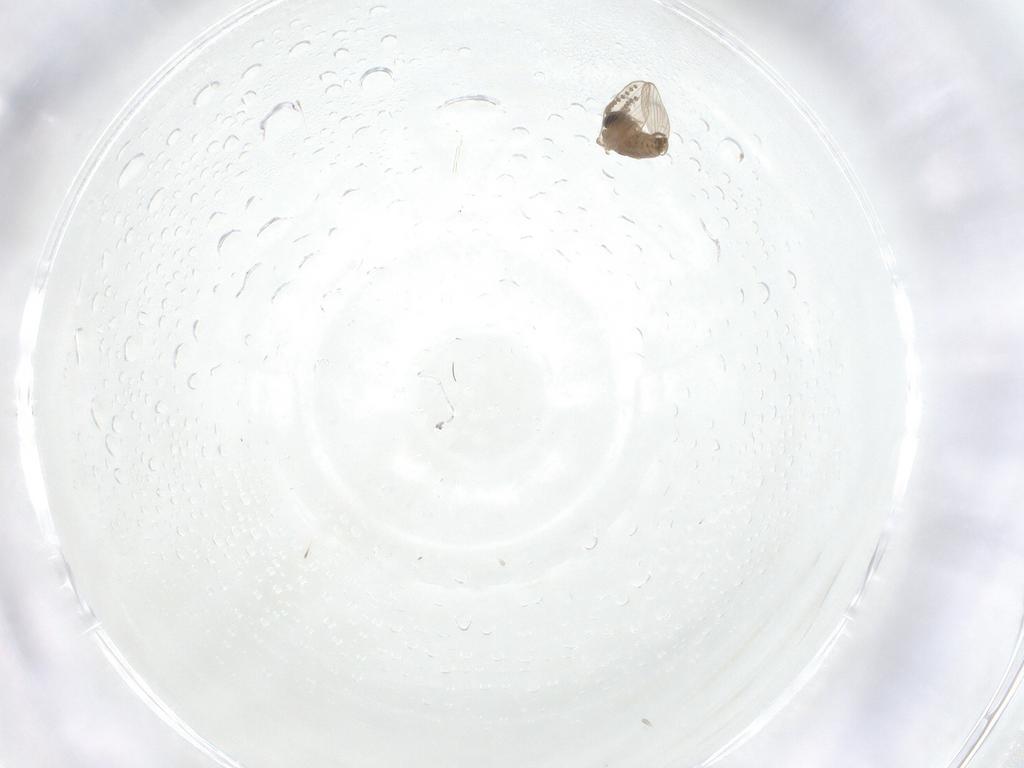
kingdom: Animalia
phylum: Arthropoda
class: Insecta
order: Diptera
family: Psychodidae
